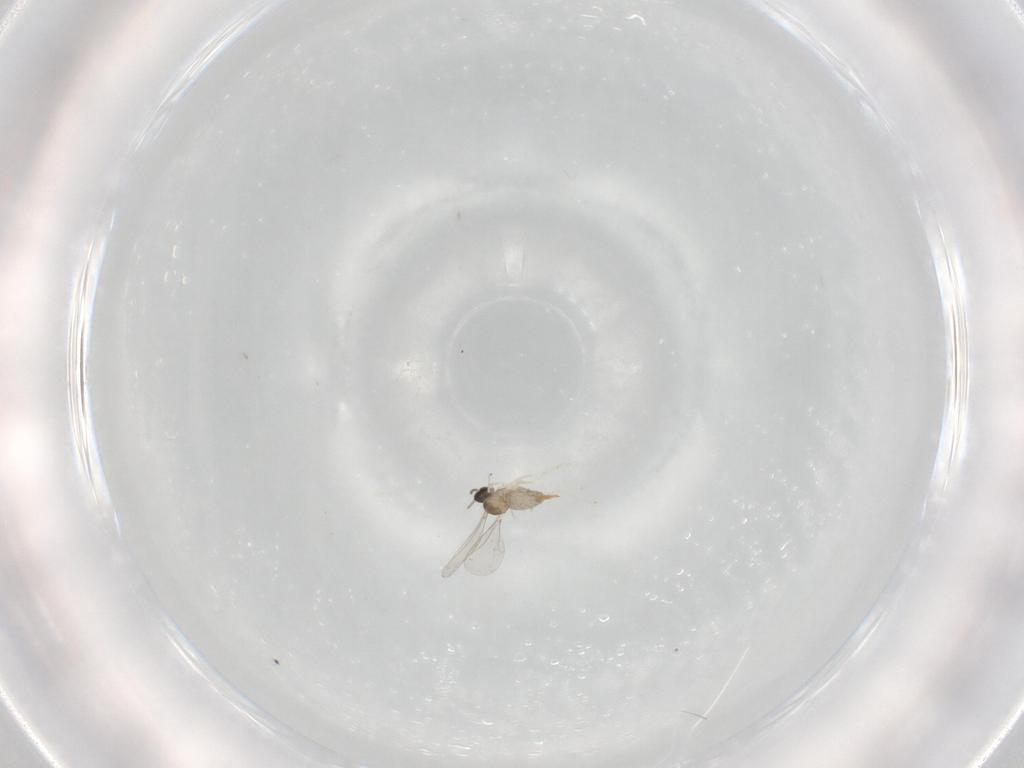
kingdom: Animalia
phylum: Arthropoda
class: Insecta
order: Diptera
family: Cecidomyiidae
